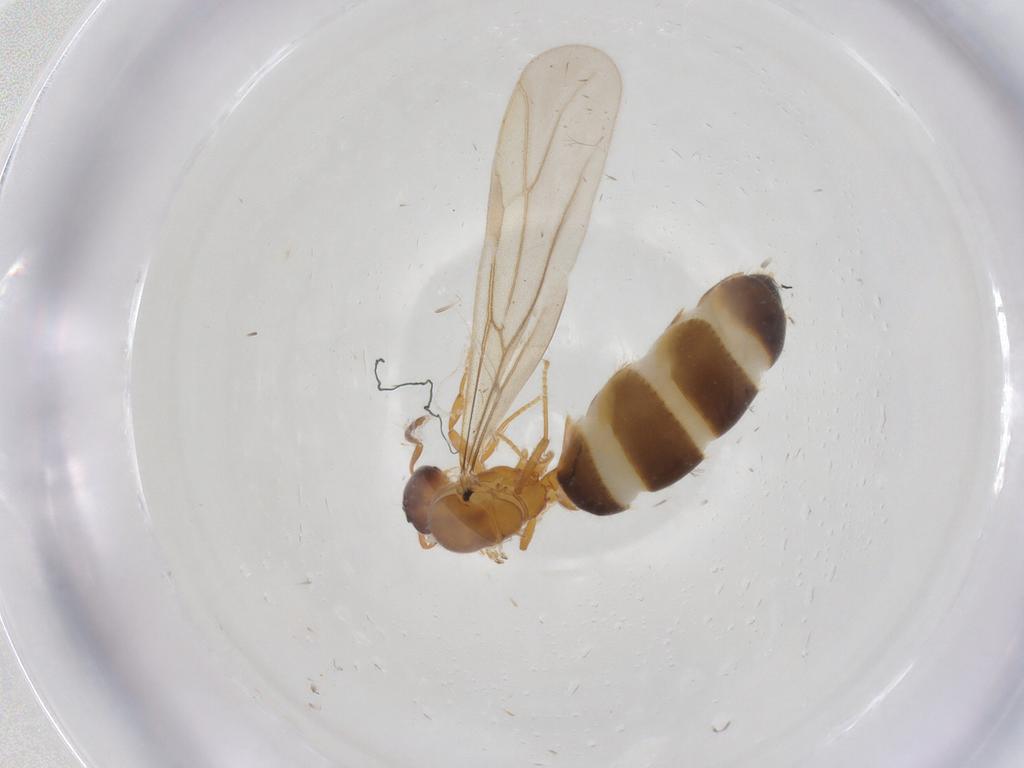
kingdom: Animalia
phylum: Arthropoda
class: Insecta
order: Hymenoptera
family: Formicidae
